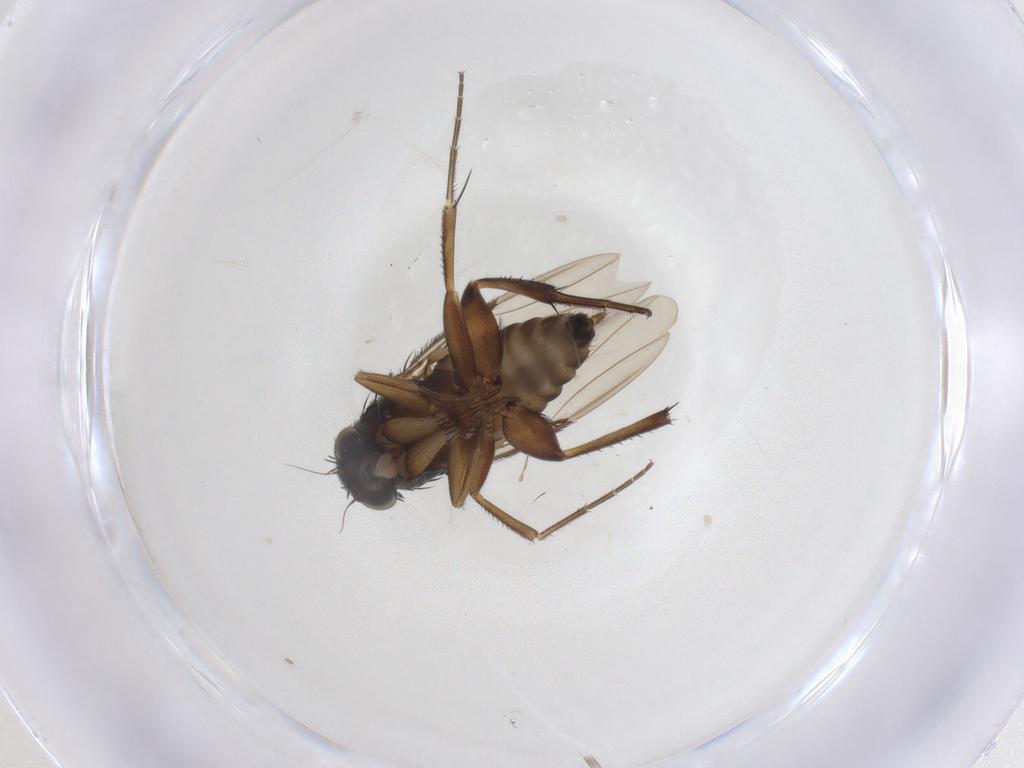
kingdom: Animalia
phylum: Arthropoda
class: Insecta
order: Diptera
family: Phoridae
